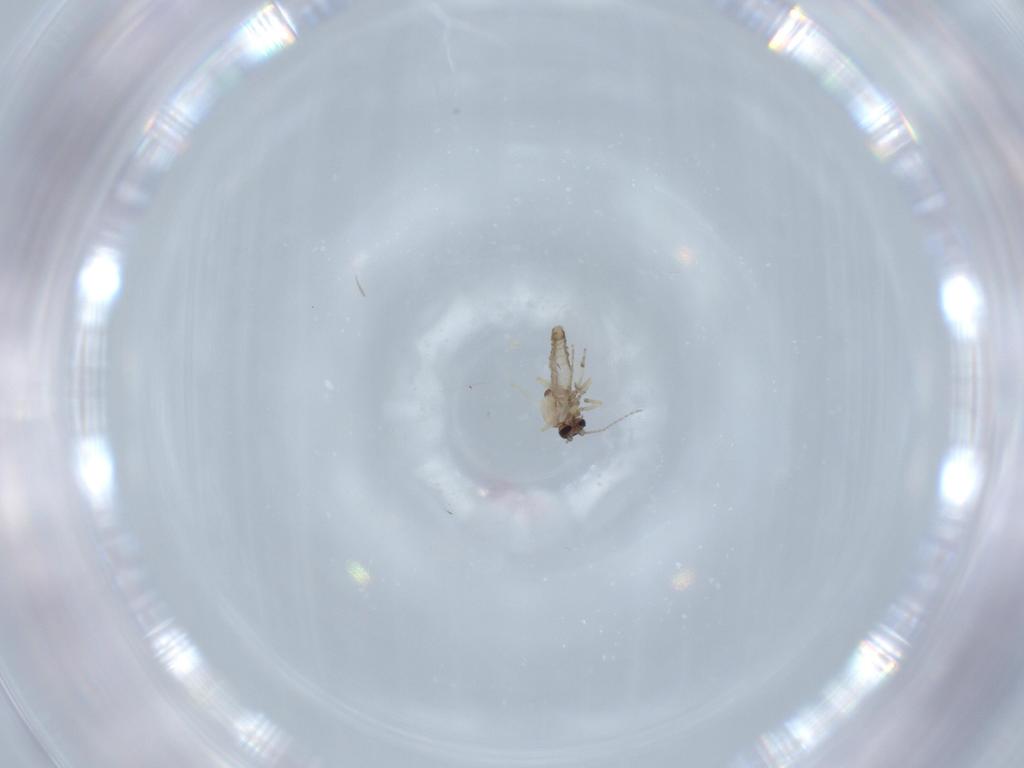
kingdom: Animalia
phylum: Arthropoda
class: Insecta
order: Diptera
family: Ceratopogonidae
